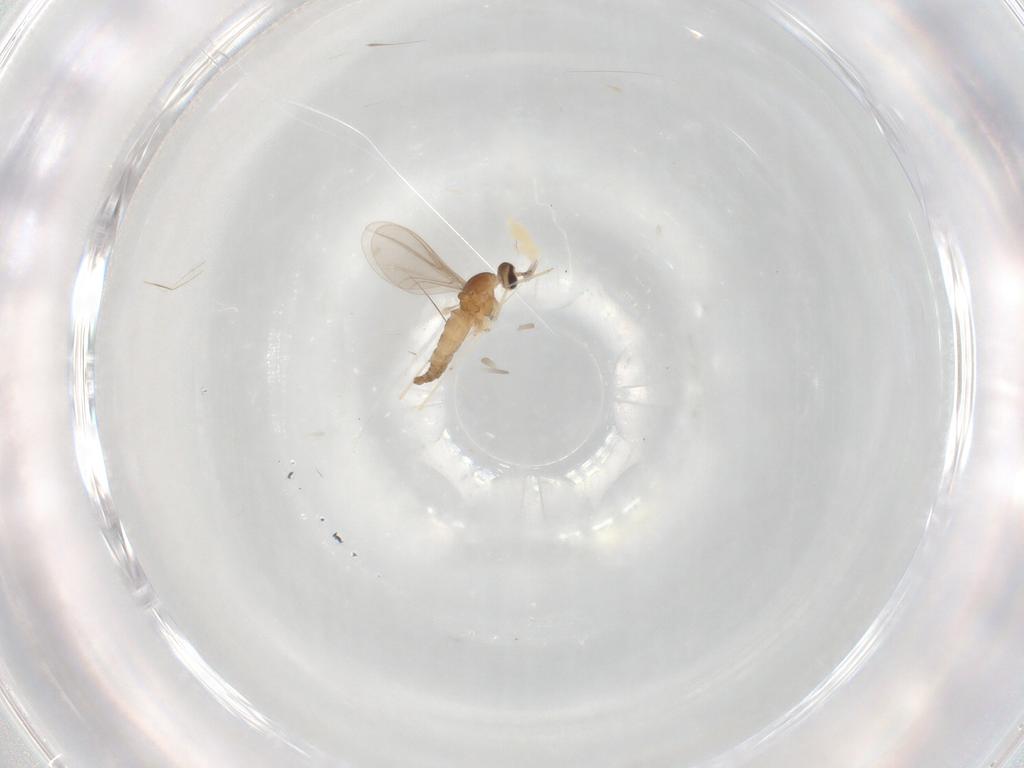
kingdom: Animalia
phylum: Arthropoda
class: Insecta
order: Diptera
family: Cecidomyiidae
